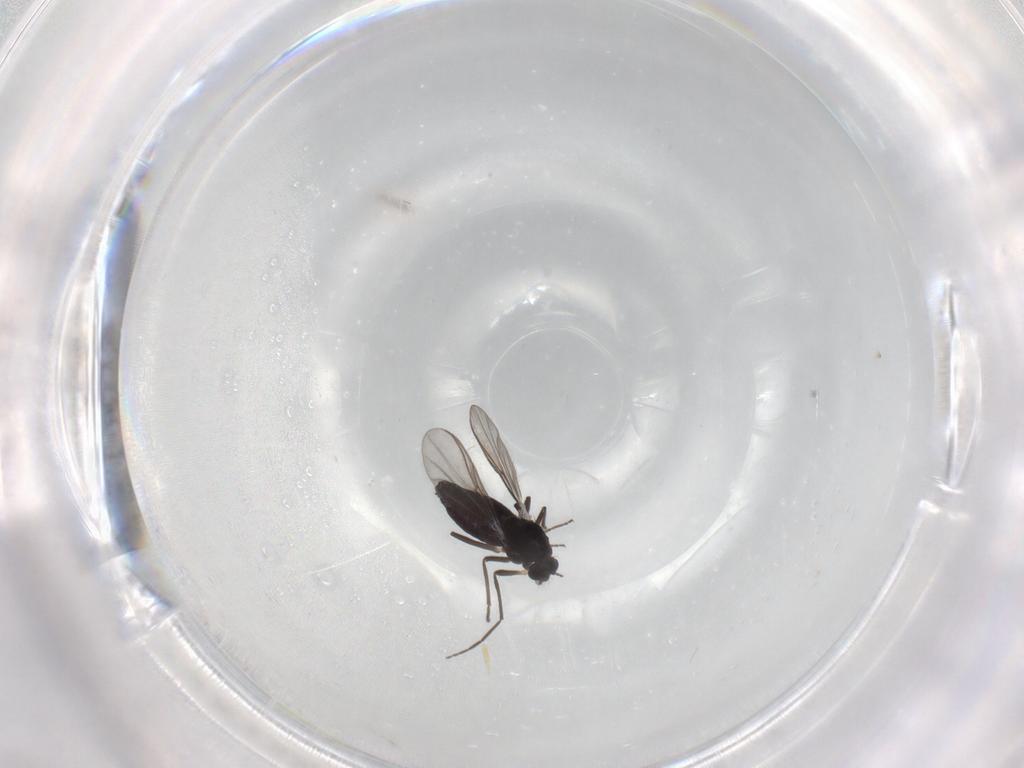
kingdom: Animalia
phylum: Arthropoda
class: Insecta
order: Diptera
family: Chironomidae
